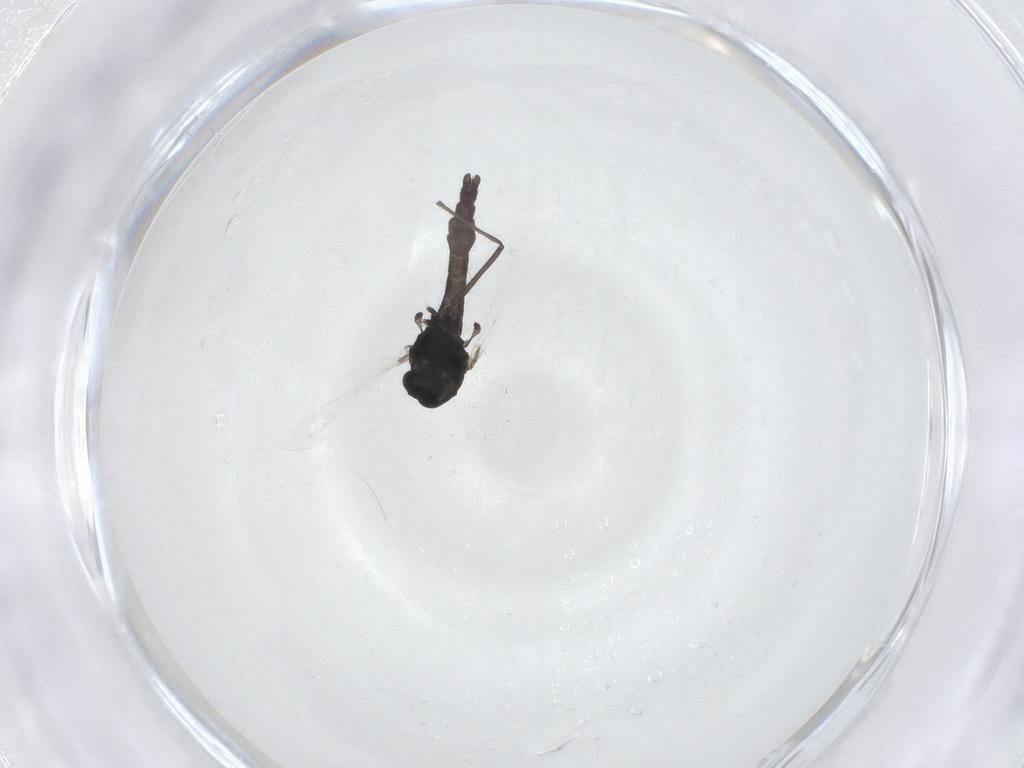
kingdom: Animalia
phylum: Arthropoda
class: Insecta
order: Diptera
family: Chironomidae
